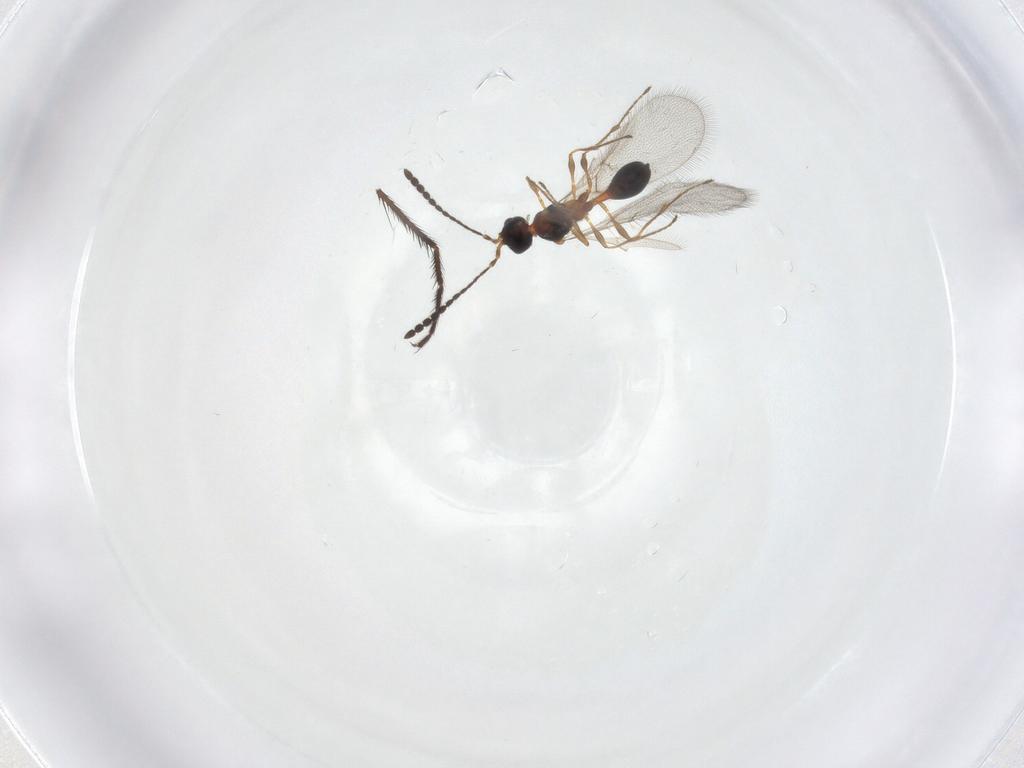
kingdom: Animalia
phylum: Arthropoda
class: Insecta
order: Hymenoptera
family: Diapriidae
